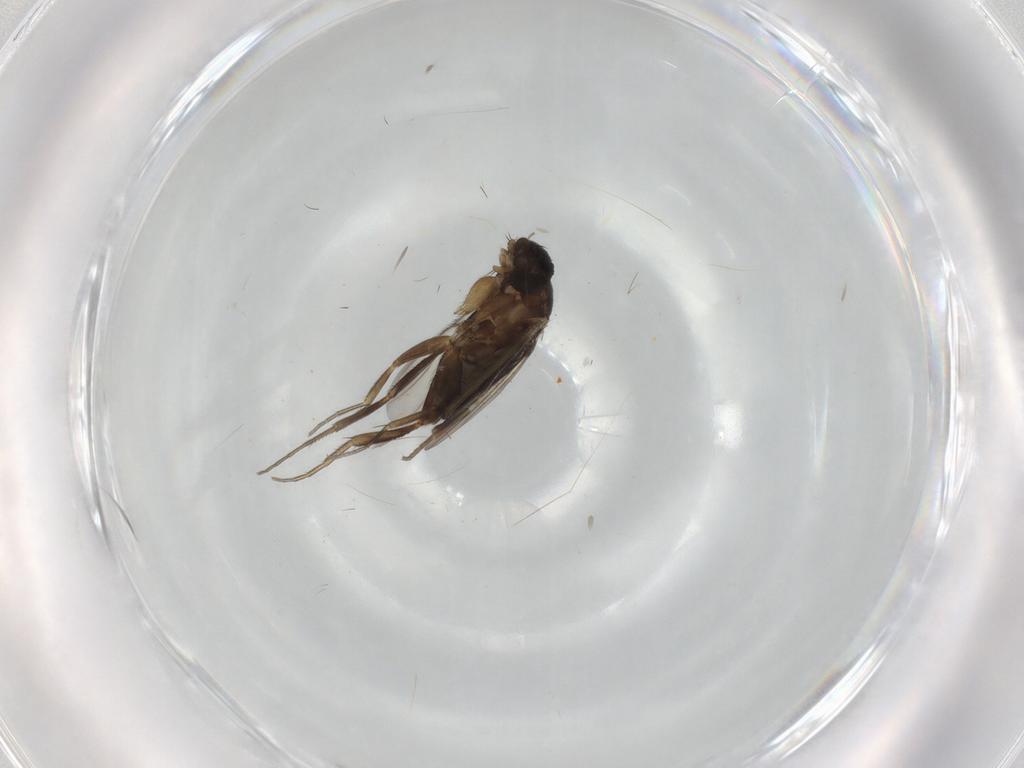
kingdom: Animalia
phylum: Arthropoda
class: Insecta
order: Diptera
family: Phoridae
